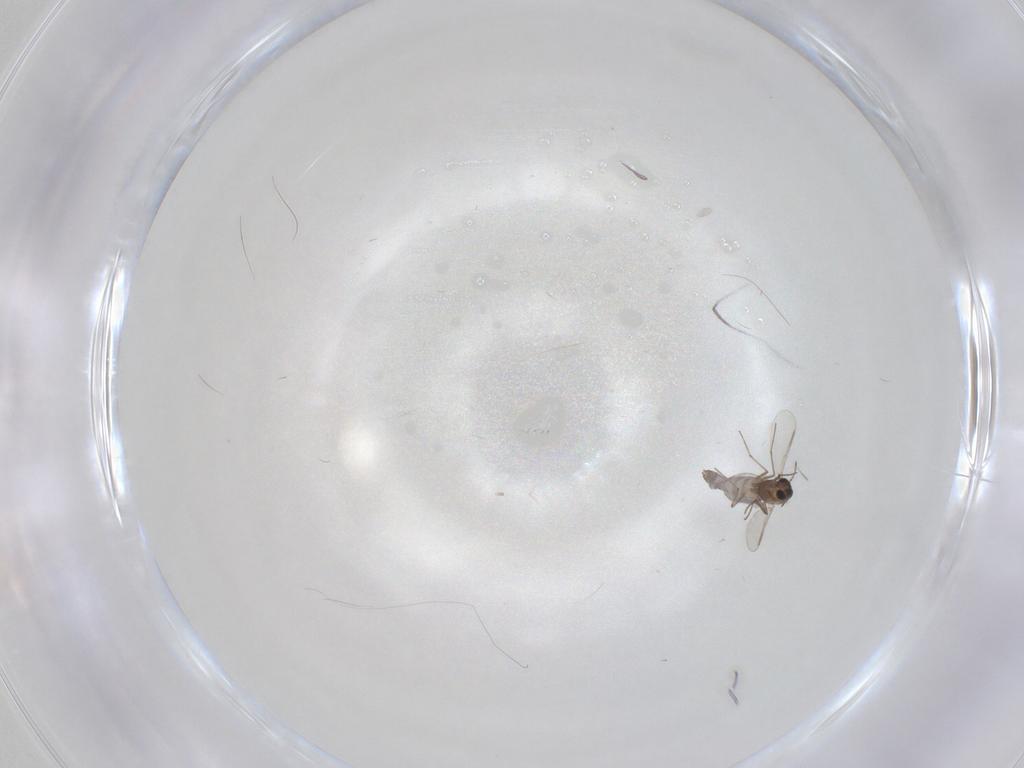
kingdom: Animalia
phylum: Arthropoda
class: Insecta
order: Diptera
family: Chironomidae
